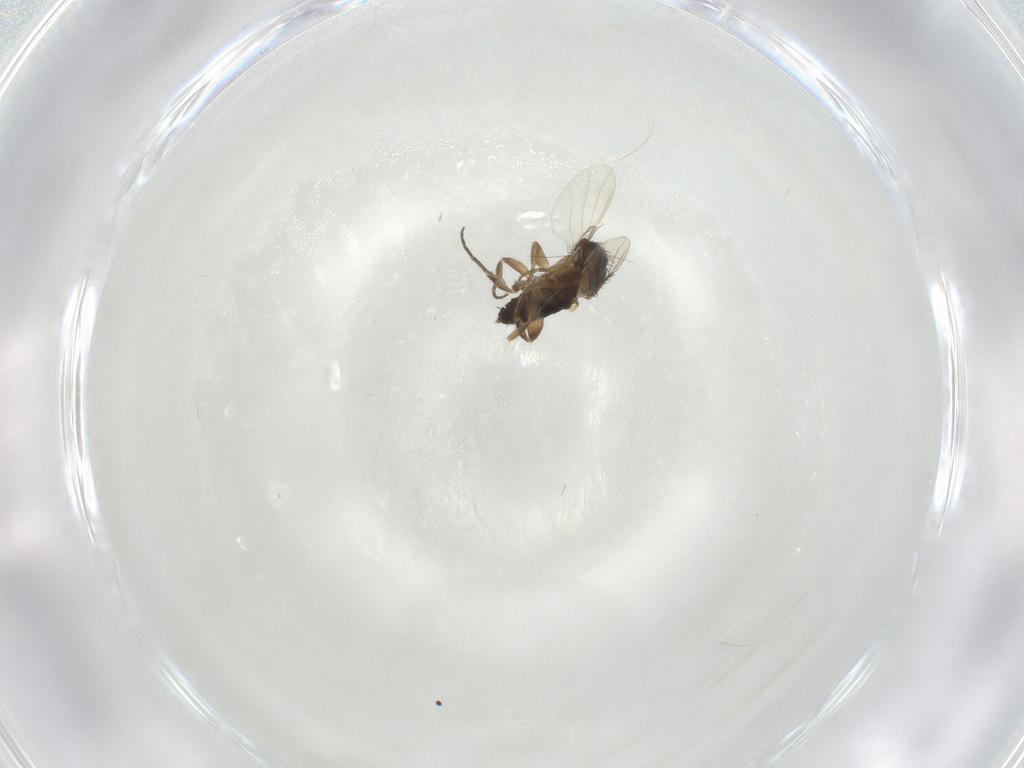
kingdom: Animalia
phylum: Arthropoda
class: Insecta
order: Diptera
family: Phoridae
